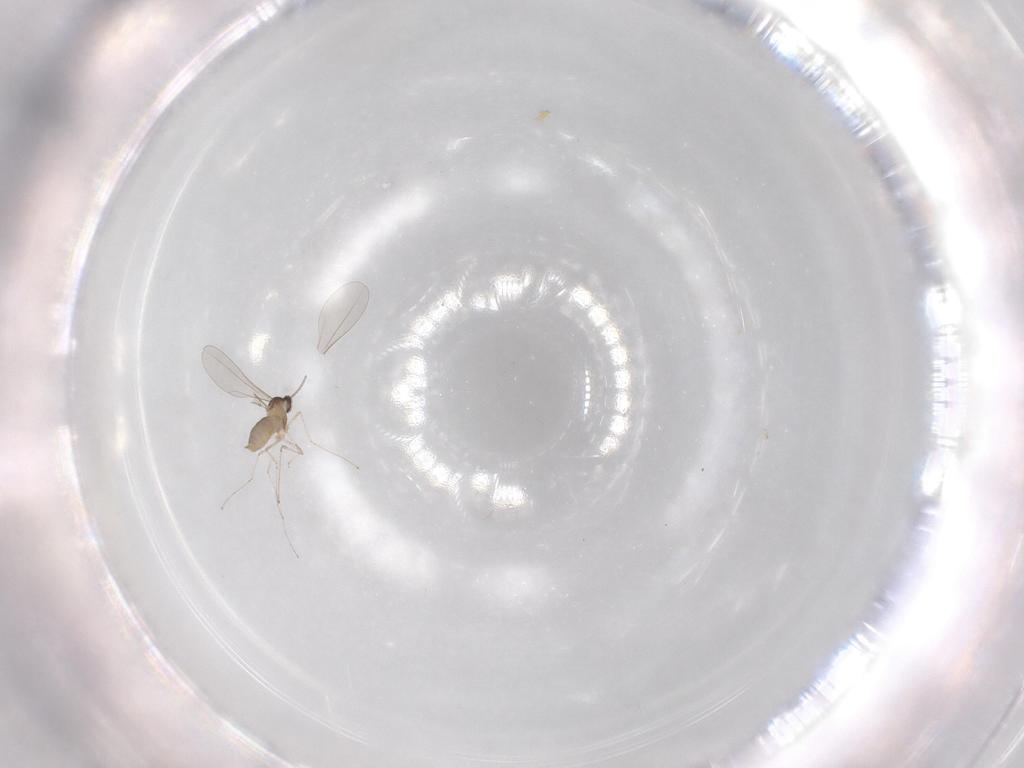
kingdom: Animalia
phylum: Arthropoda
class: Insecta
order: Diptera
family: Cecidomyiidae
